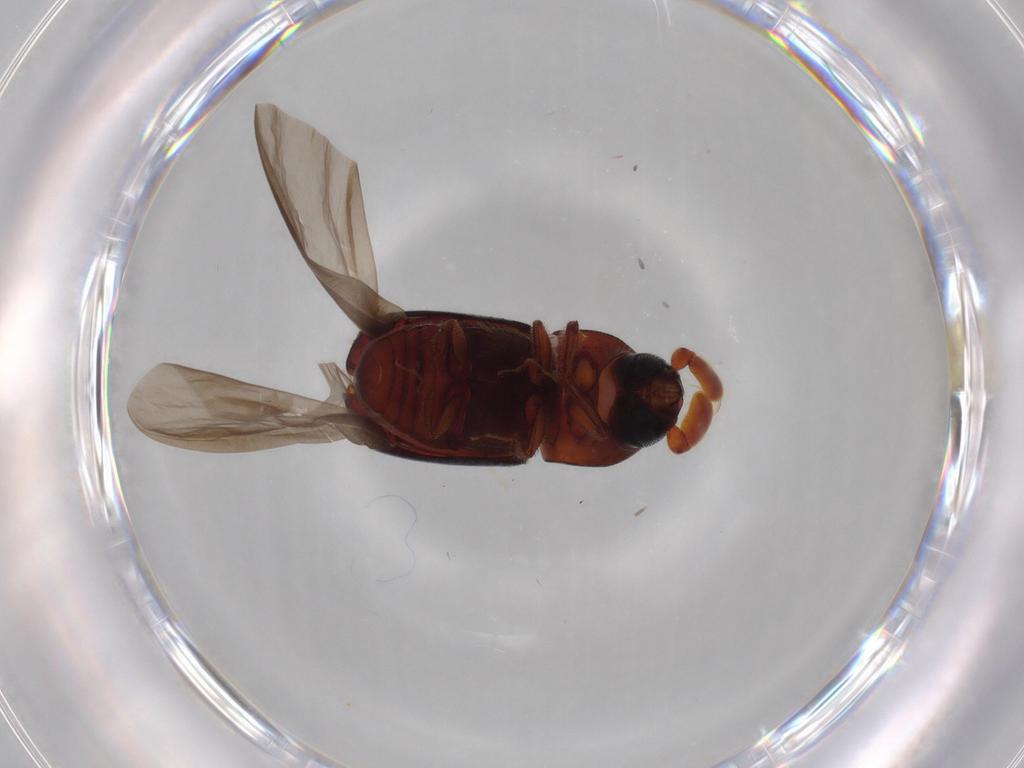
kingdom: Animalia
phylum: Arthropoda
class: Insecta
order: Coleoptera
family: Curculionidae
